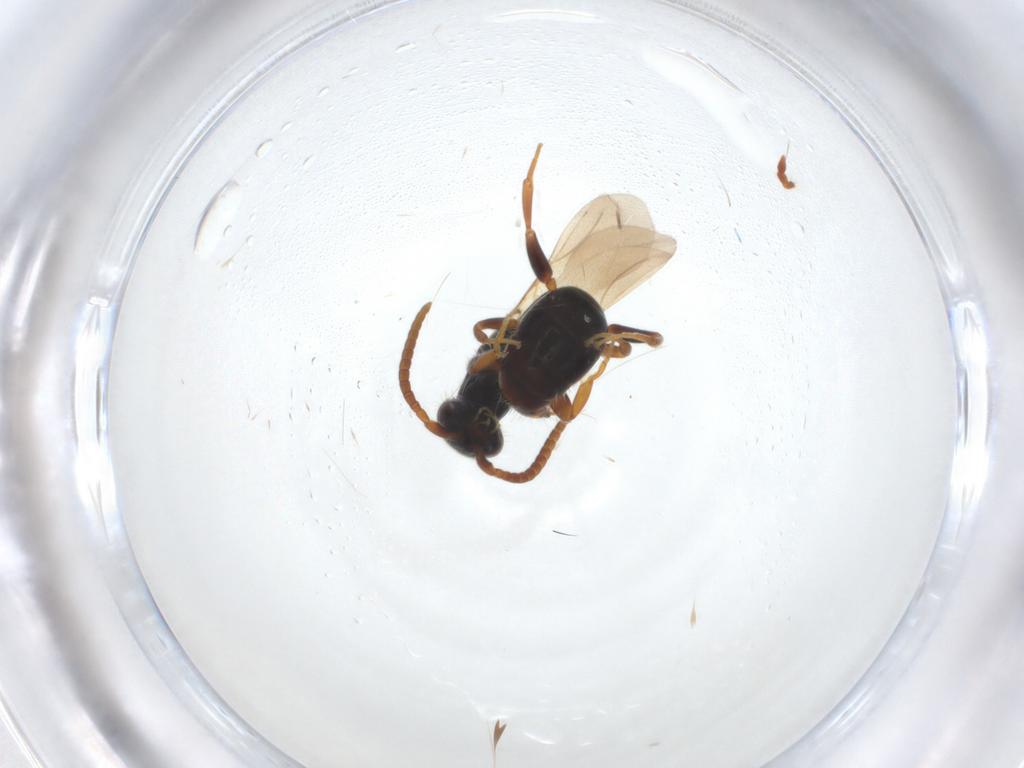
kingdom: Animalia
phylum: Arthropoda
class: Insecta
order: Hymenoptera
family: Bethylidae
